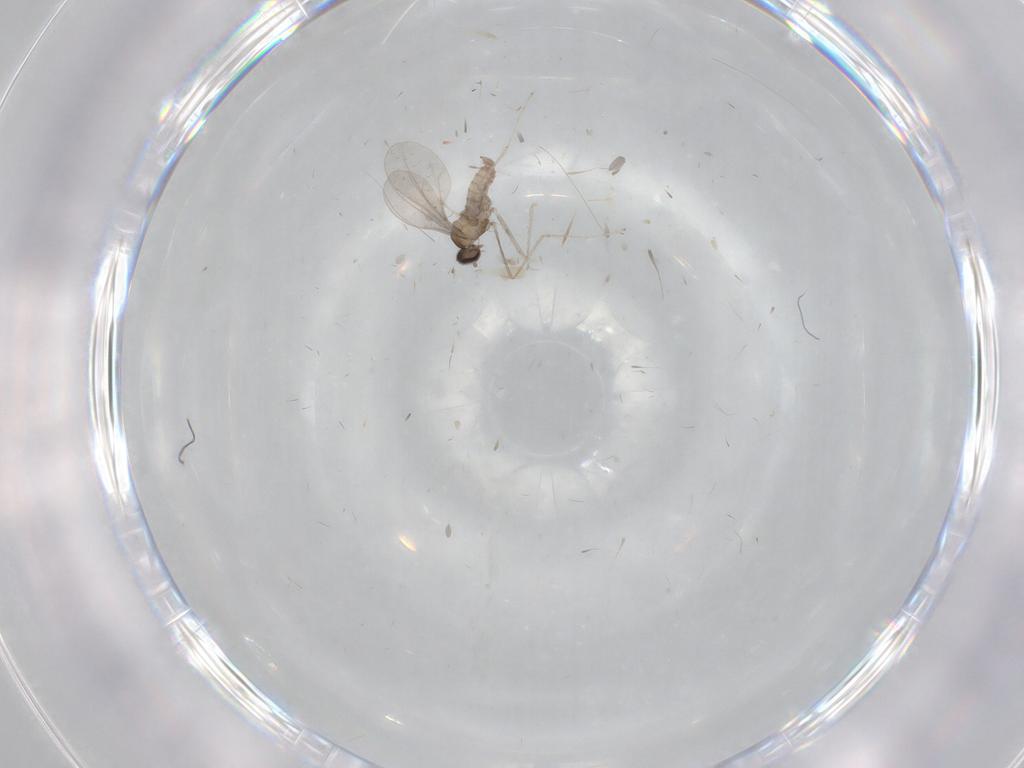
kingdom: Animalia
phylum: Arthropoda
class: Insecta
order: Diptera
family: Cecidomyiidae
